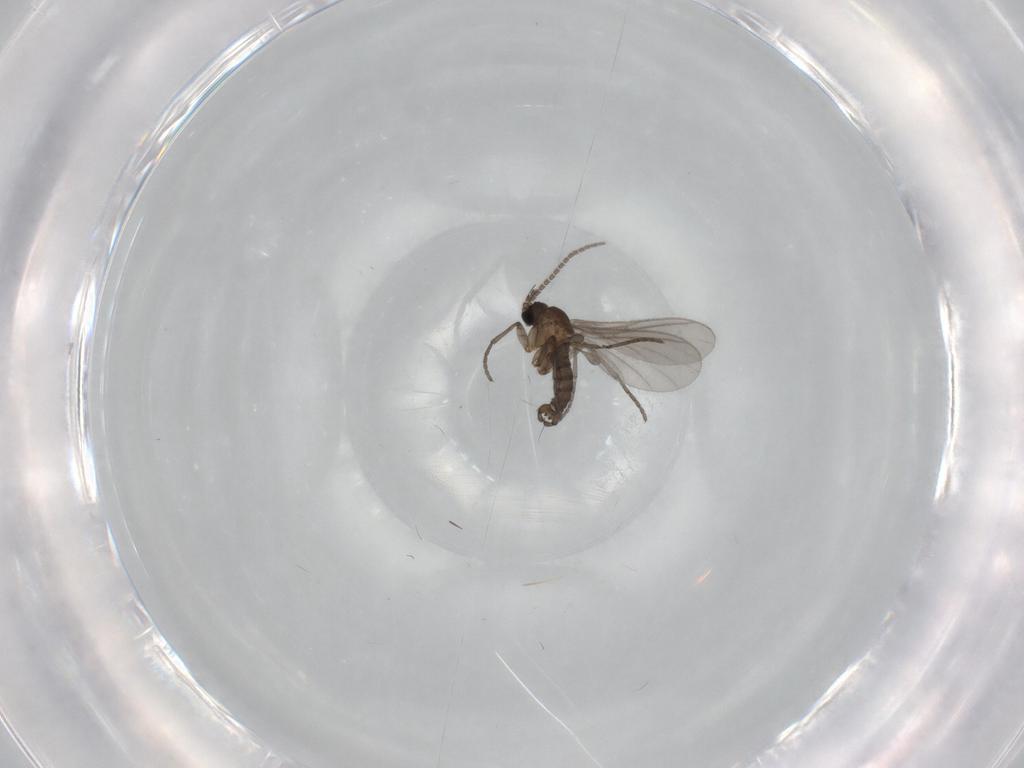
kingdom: Animalia
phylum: Arthropoda
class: Insecta
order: Diptera
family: Sciaridae
